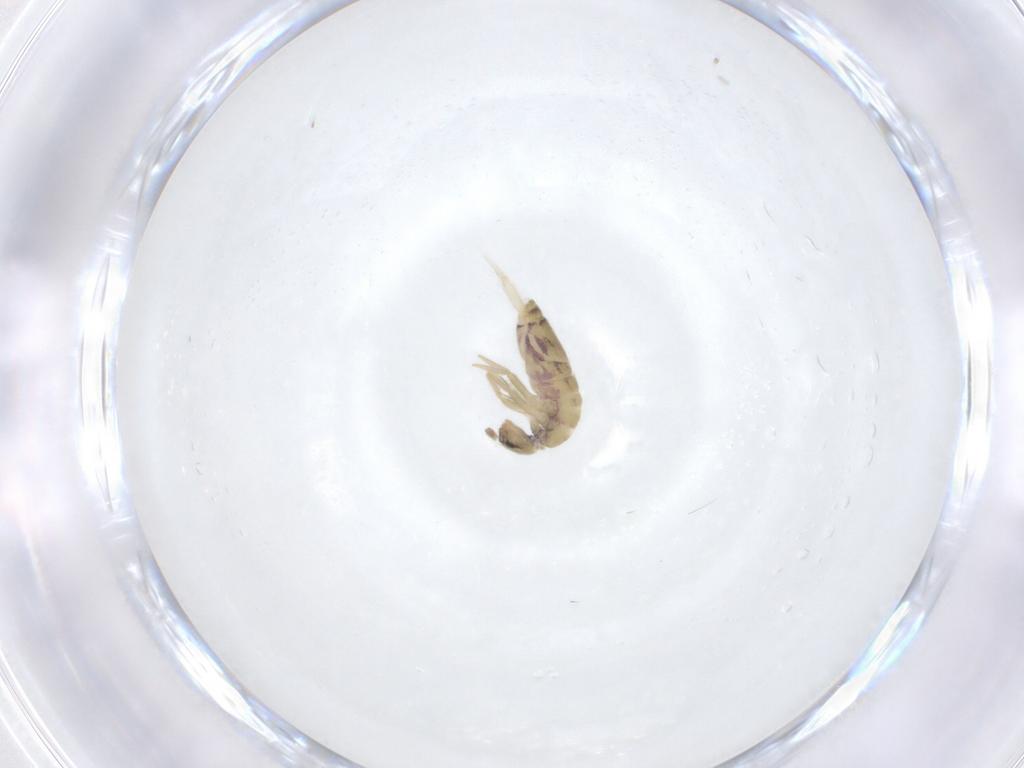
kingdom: Animalia
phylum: Arthropoda
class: Collembola
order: Entomobryomorpha
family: Entomobryidae
